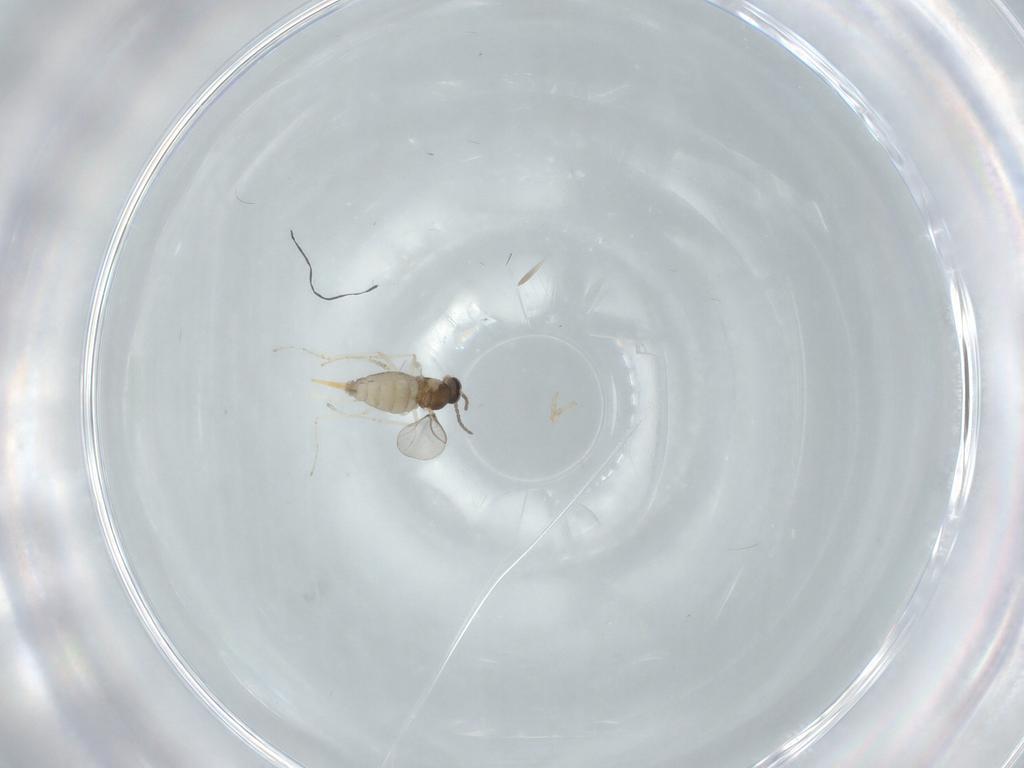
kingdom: Animalia
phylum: Arthropoda
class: Insecta
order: Diptera
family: Cecidomyiidae
